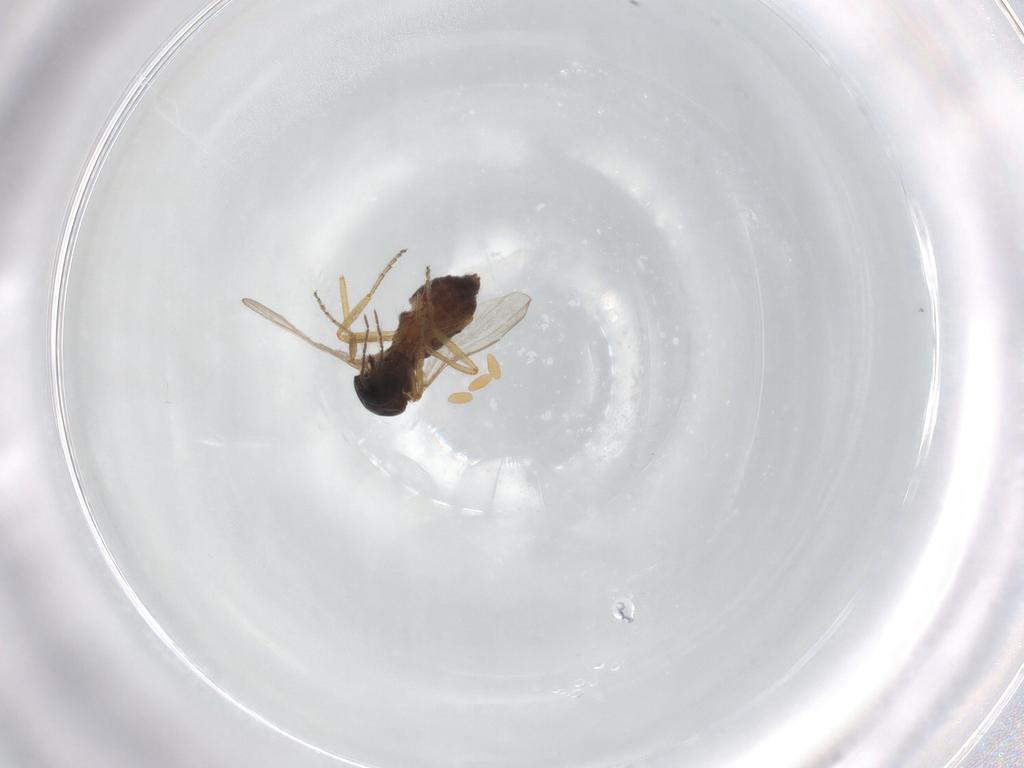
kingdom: Animalia
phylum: Arthropoda
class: Insecta
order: Diptera
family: Ceratopogonidae
